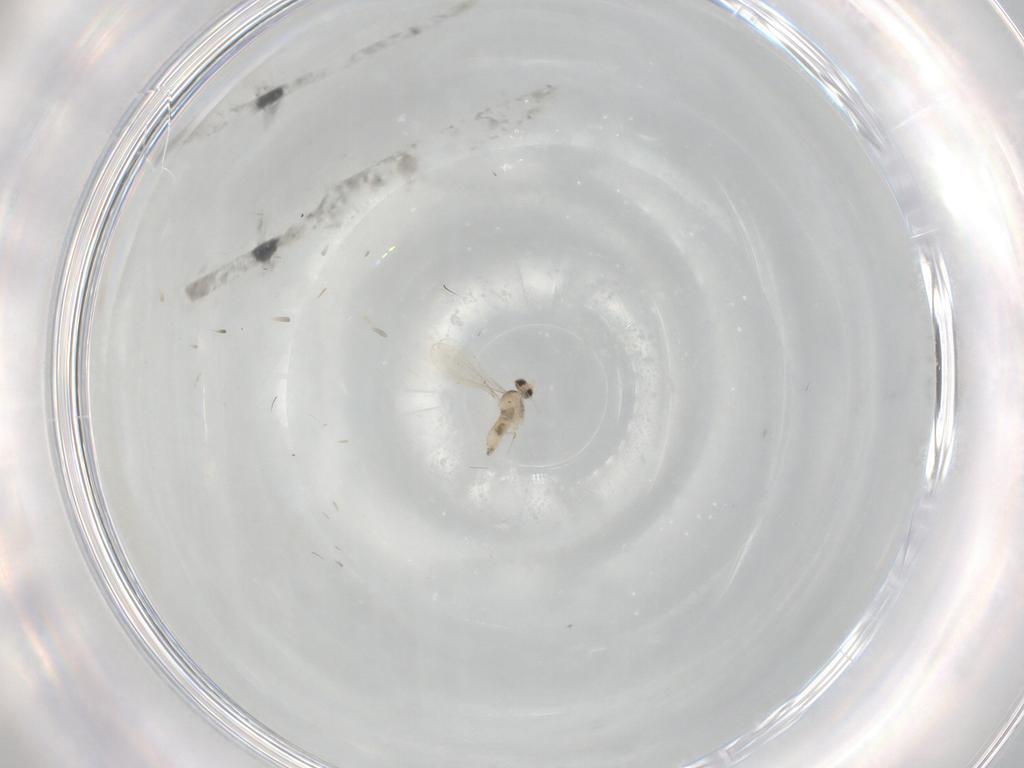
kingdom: Animalia
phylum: Arthropoda
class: Insecta
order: Diptera
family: Cecidomyiidae
